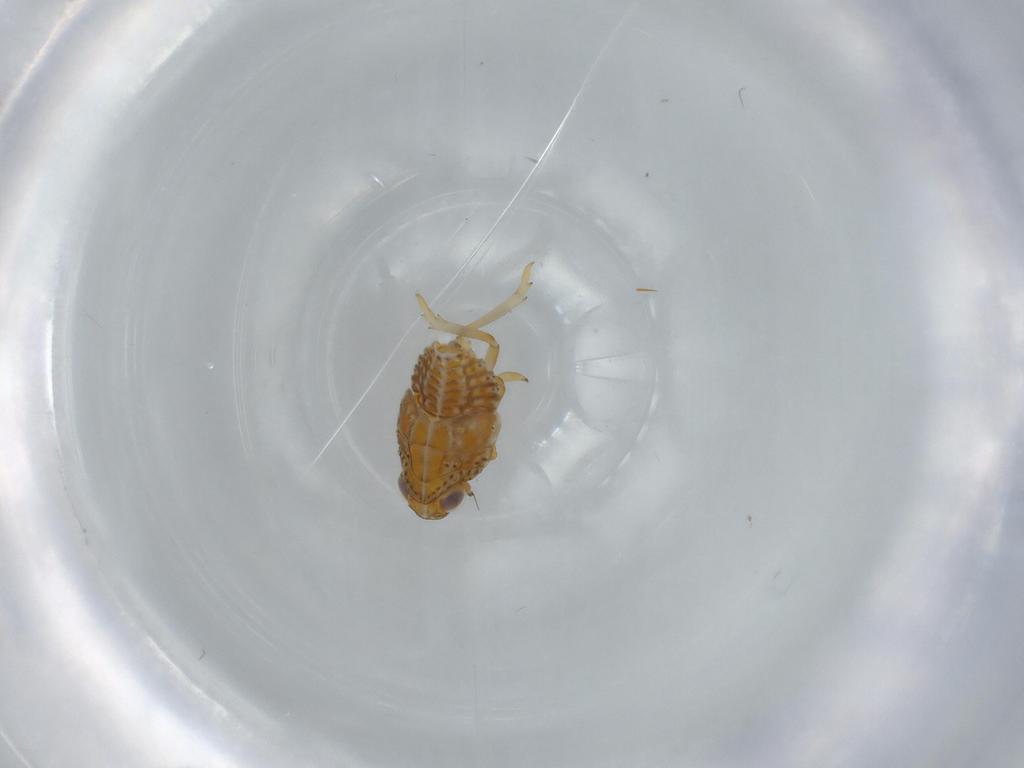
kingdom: Animalia
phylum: Arthropoda
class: Insecta
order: Hemiptera
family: Issidae
